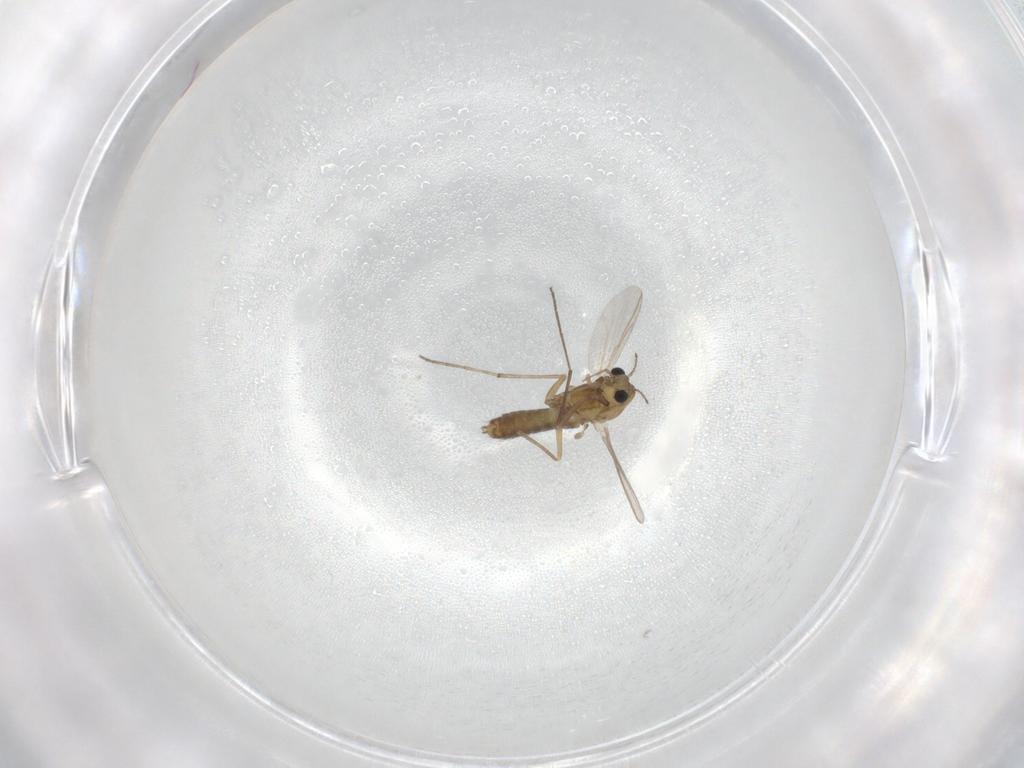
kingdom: Animalia
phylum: Arthropoda
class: Insecta
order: Diptera
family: Chironomidae
